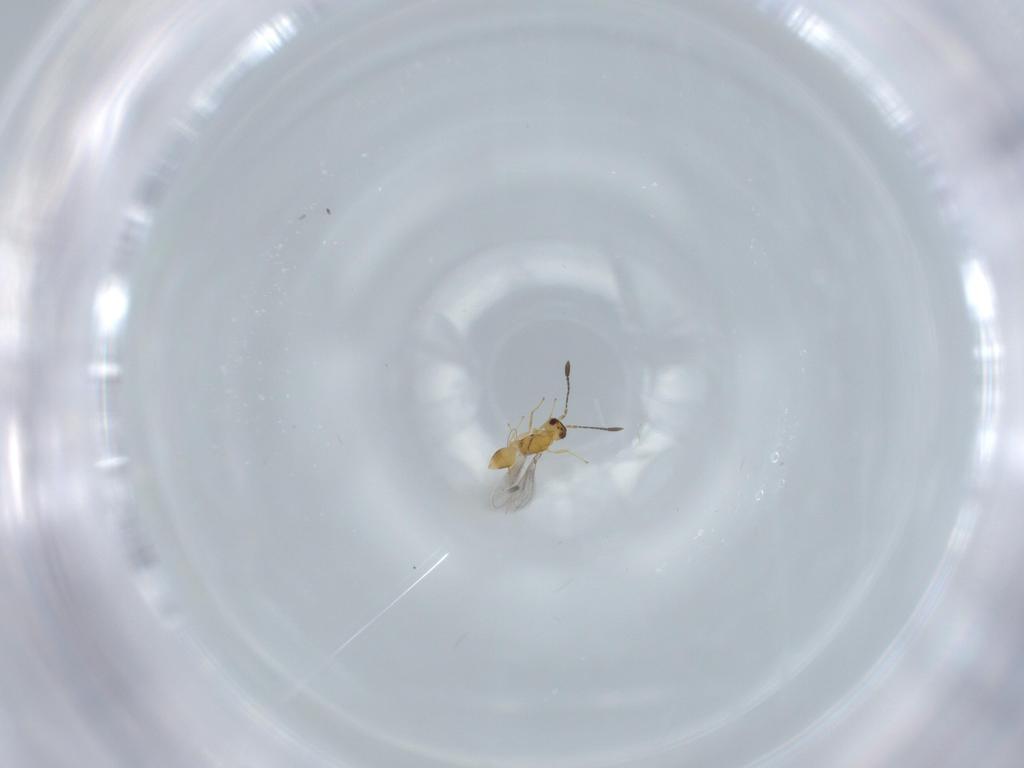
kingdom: Animalia
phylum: Arthropoda
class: Insecta
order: Hymenoptera
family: Mymaridae
